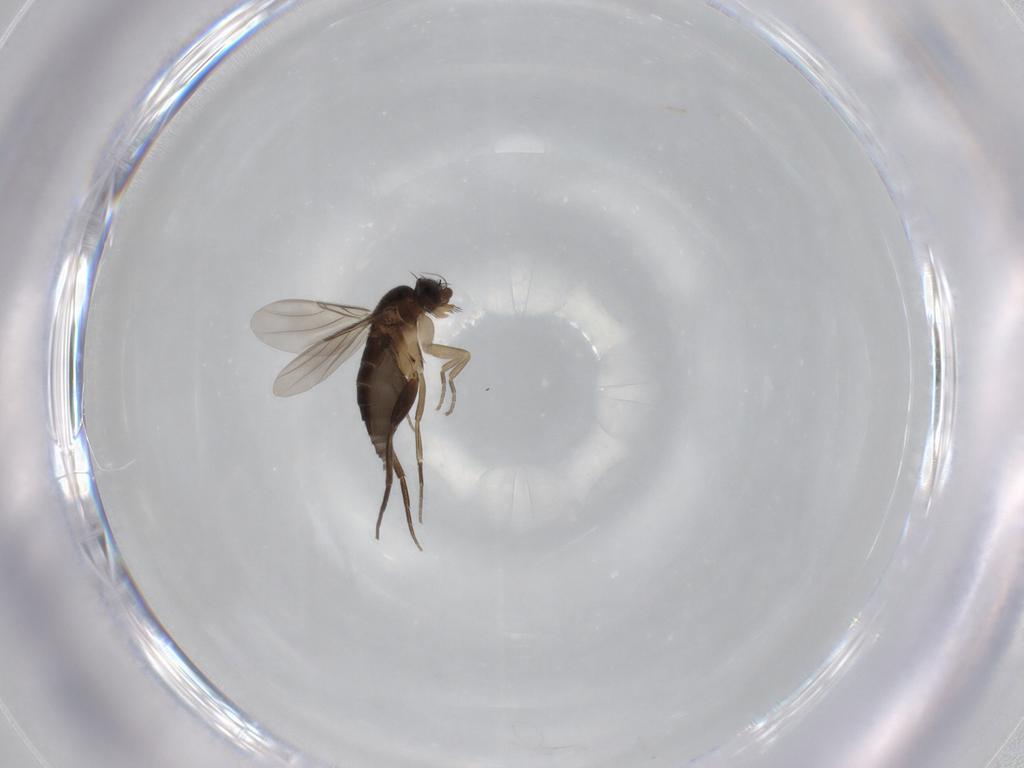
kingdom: Animalia
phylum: Arthropoda
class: Insecta
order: Diptera
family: Phoridae
